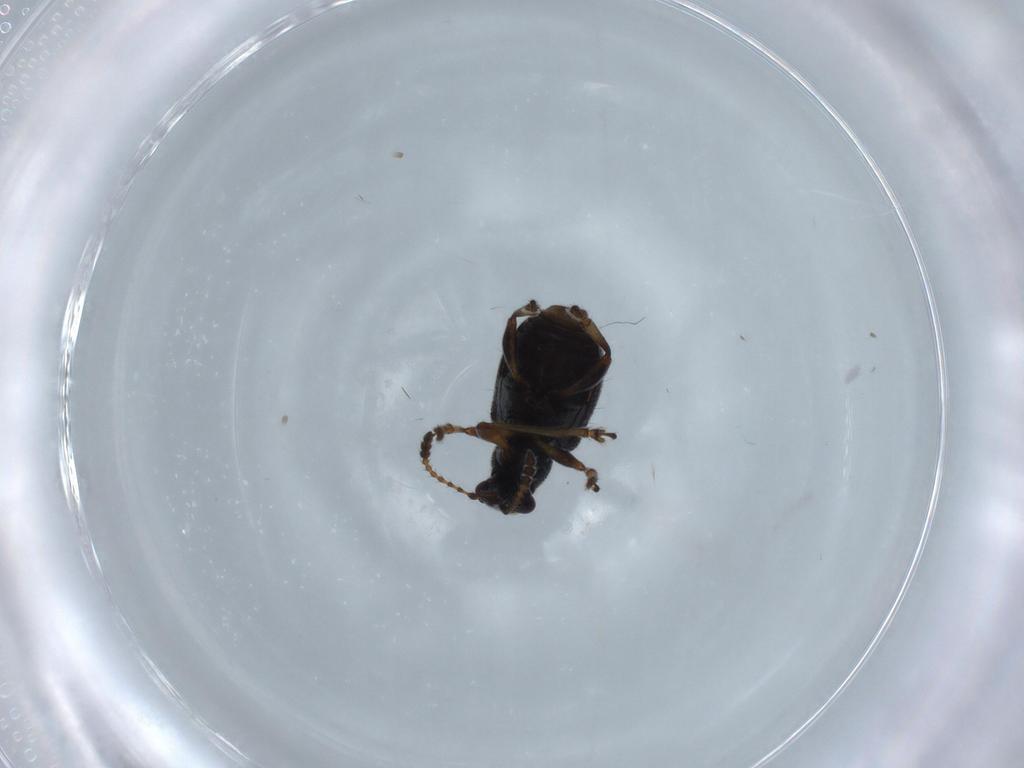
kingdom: Animalia
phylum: Arthropoda
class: Insecta
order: Coleoptera
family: Attelabidae
